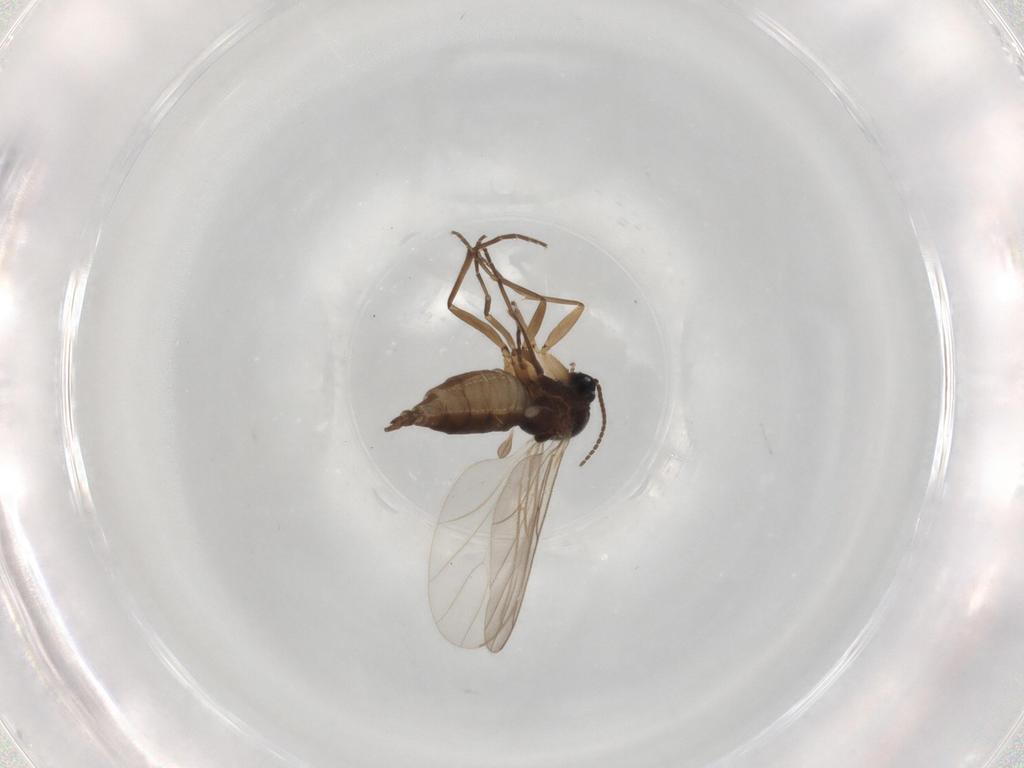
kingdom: Animalia
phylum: Arthropoda
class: Insecta
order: Diptera
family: Sciaridae
